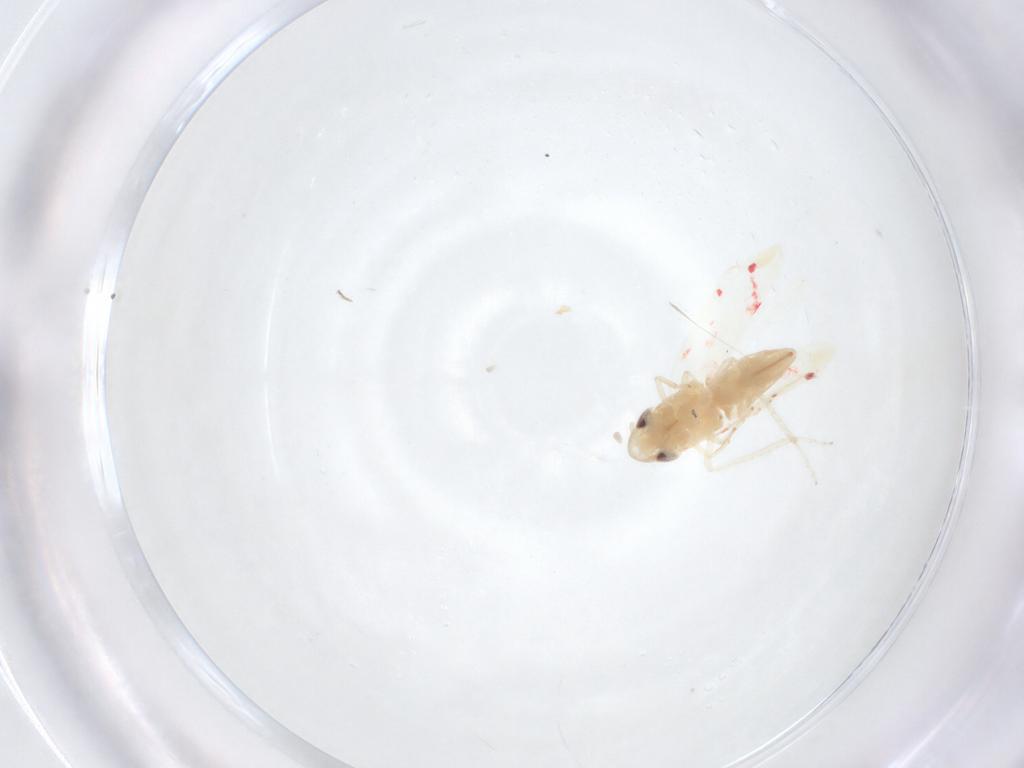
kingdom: Animalia
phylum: Arthropoda
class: Insecta
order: Hemiptera
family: Cicadellidae
